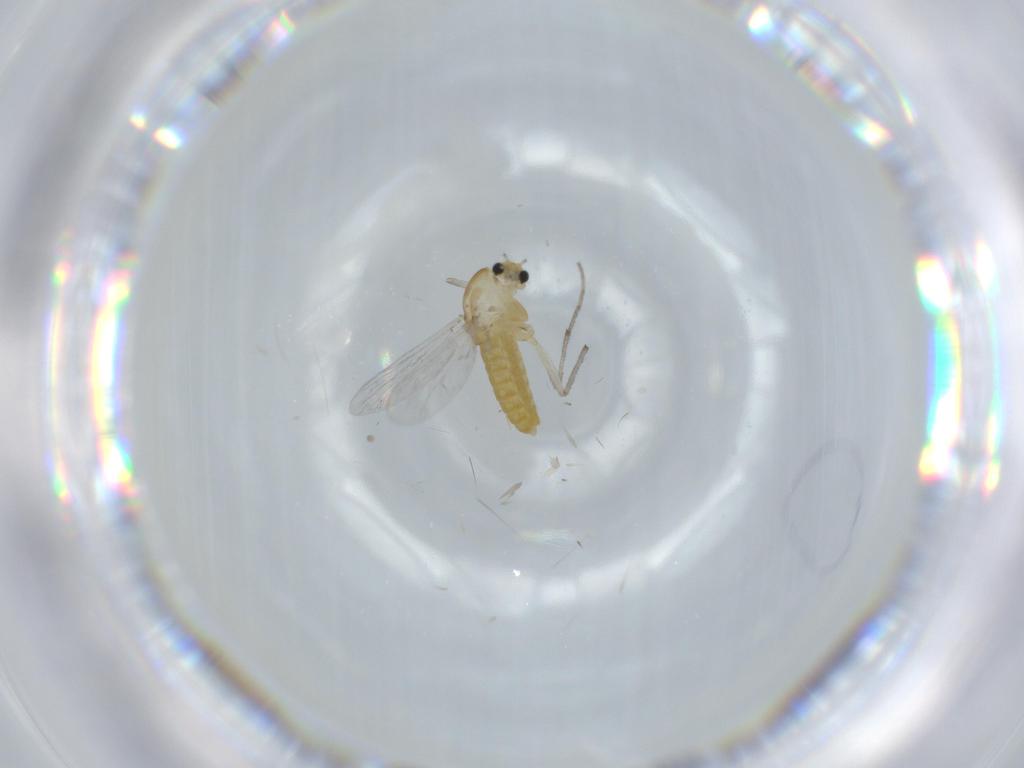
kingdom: Animalia
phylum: Arthropoda
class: Insecta
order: Diptera
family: Chironomidae
